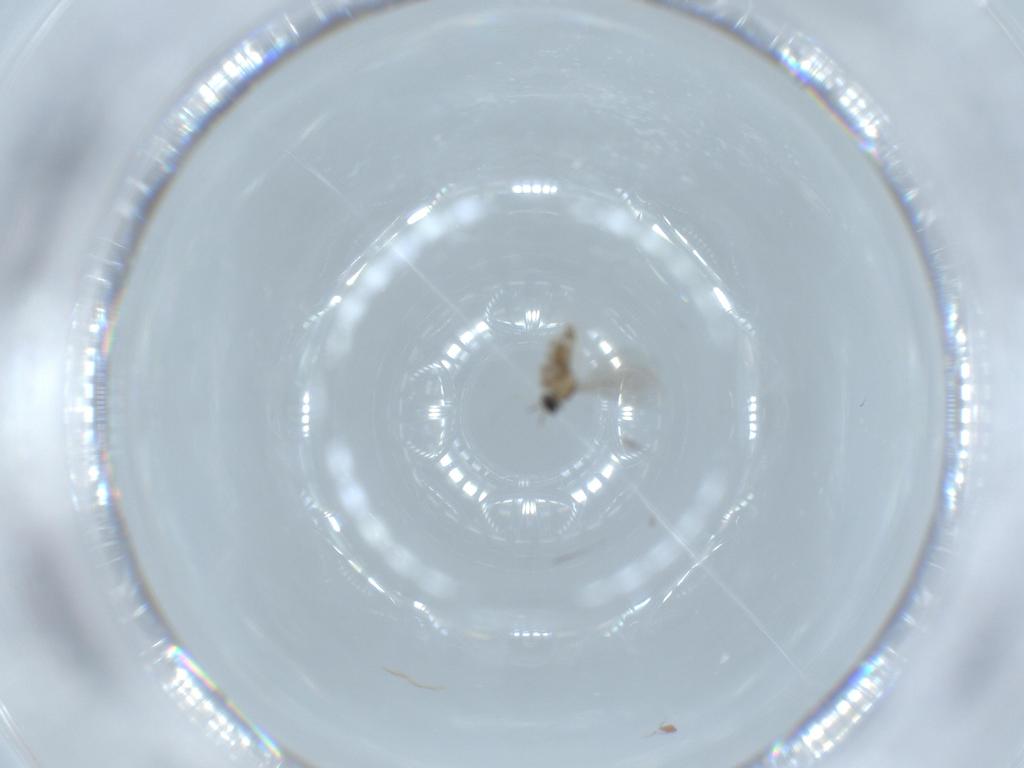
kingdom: Animalia
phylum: Arthropoda
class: Insecta
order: Diptera
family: Cecidomyiidae
